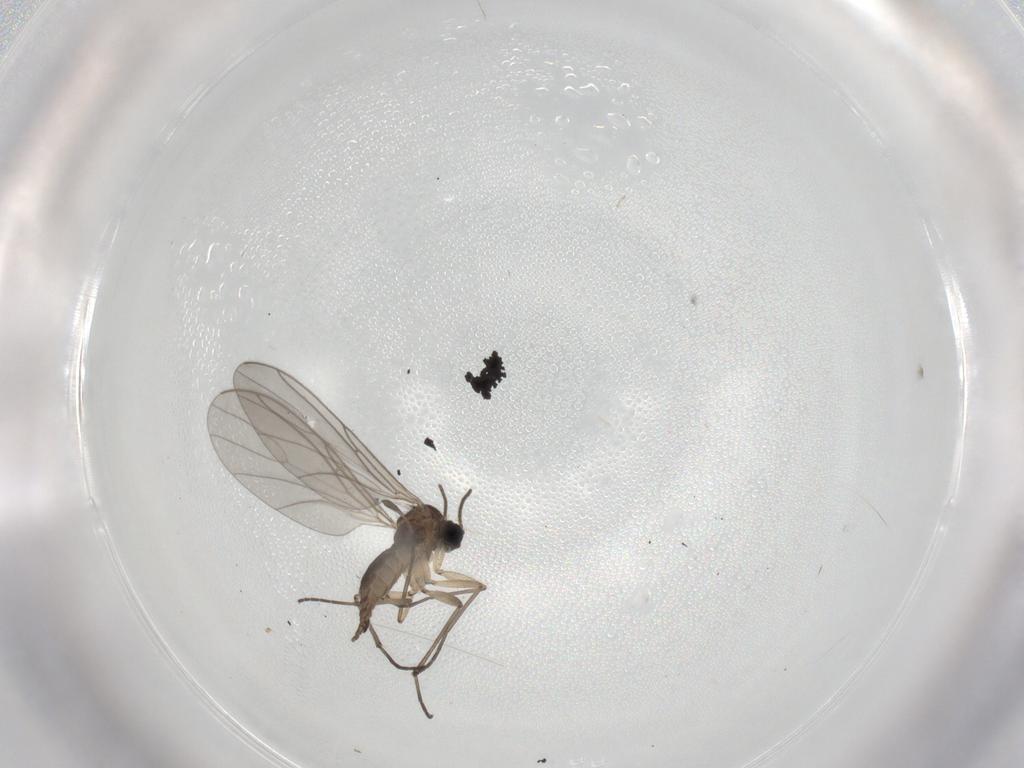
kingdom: Animalia
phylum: Arthropoda
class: Insecta
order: Diptera
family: Sciaridae
